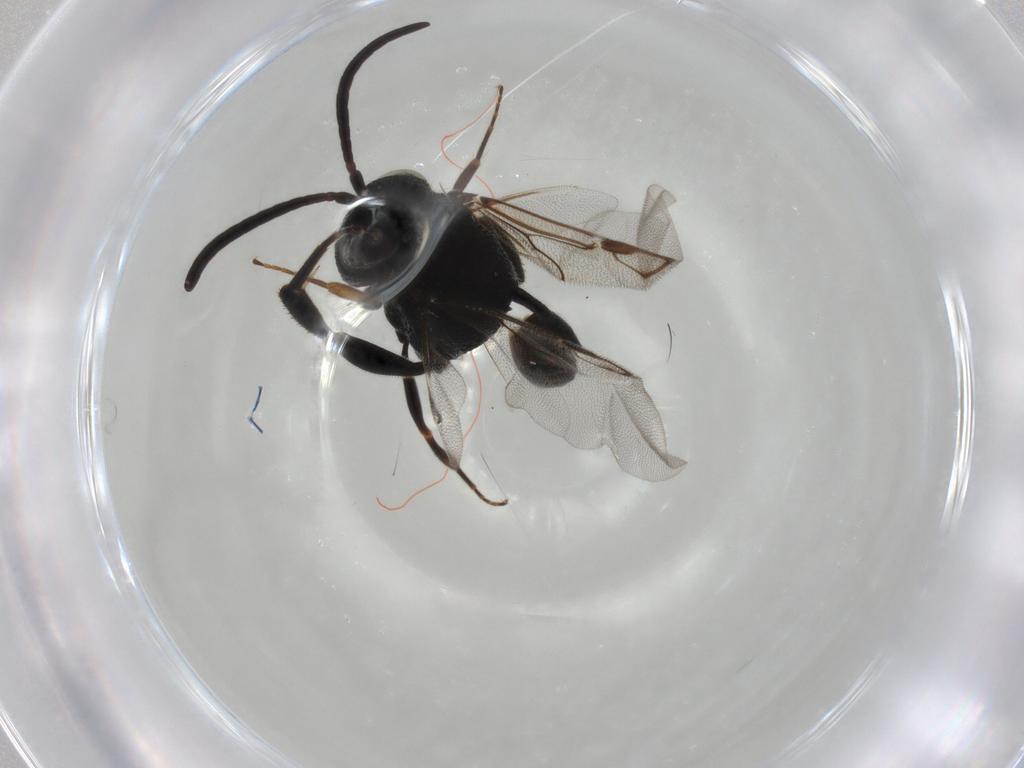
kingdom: Animalia
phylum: Arthropoda
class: Insecta
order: Hymenoptera
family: Evaniidae
